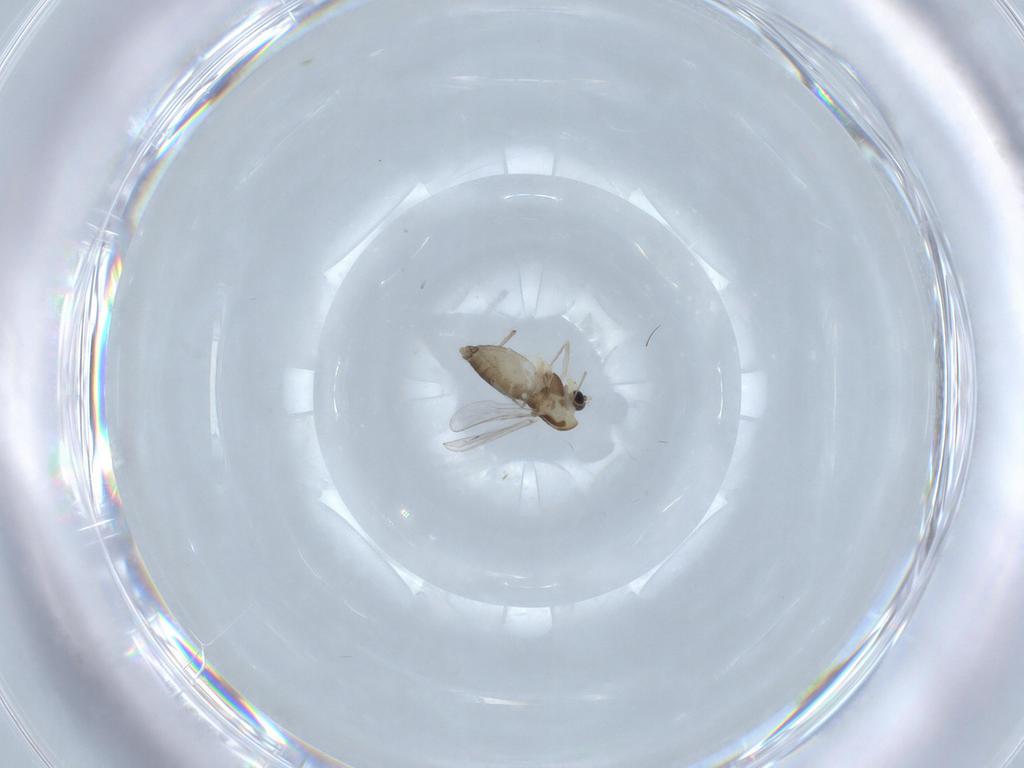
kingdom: Animalia
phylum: Arthropoda
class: Insecta
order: Diptera
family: Chironomidae
